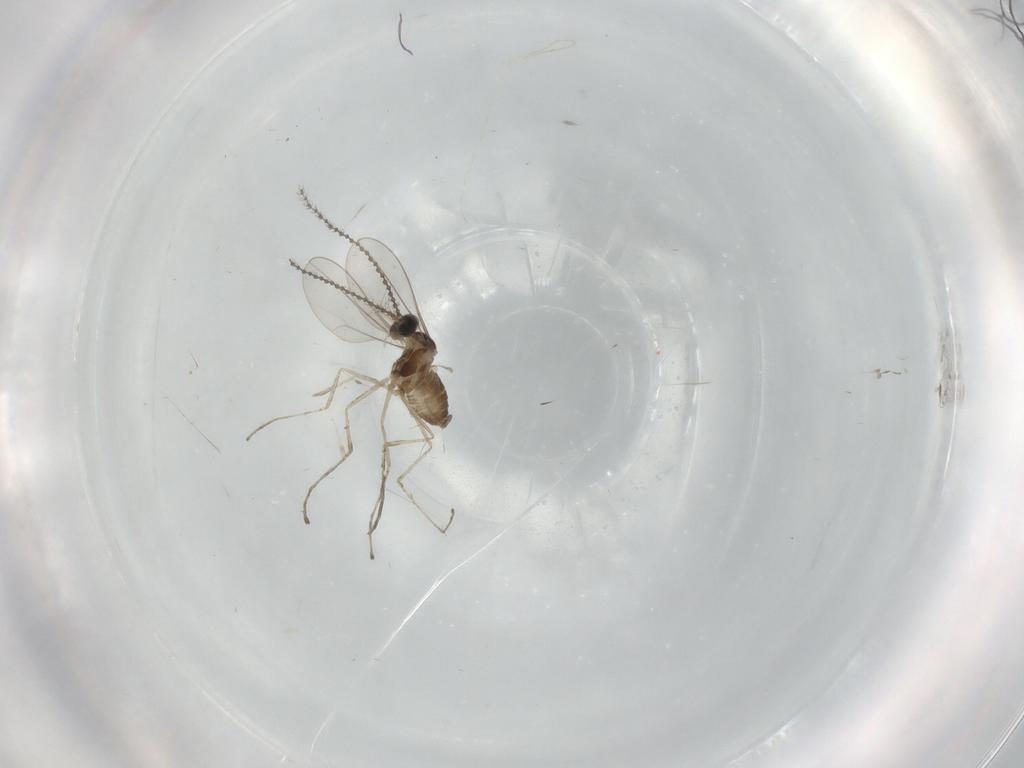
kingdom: Animalia
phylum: Arthropoda
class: Insecta
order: Diptera
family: Cecidomyiidae
